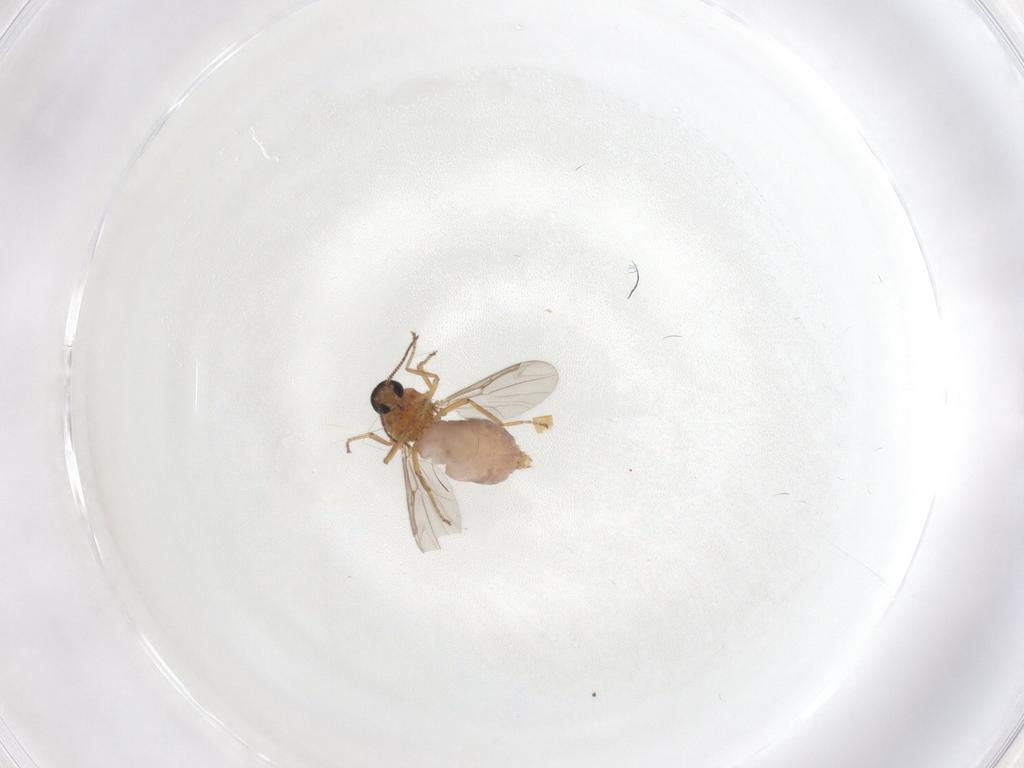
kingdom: Animalia
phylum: Arthropoda
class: Insecta
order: Diptera
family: Ceratopogonidae
